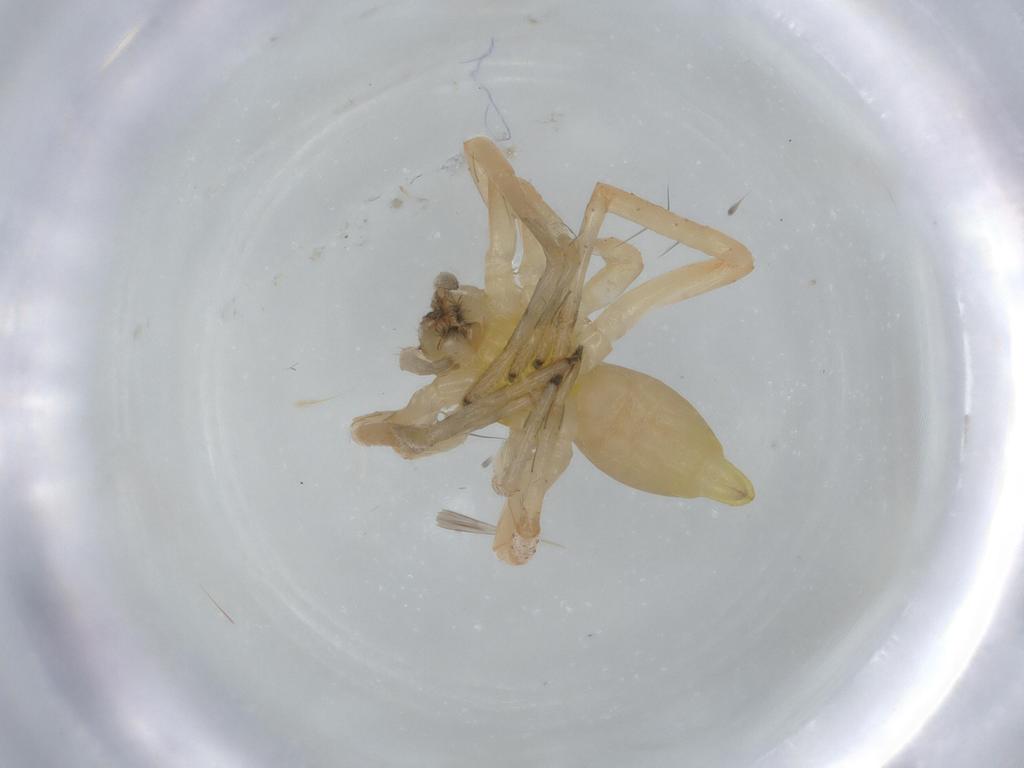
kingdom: Animalia
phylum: Arthropoda
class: Arachnida
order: Araneae
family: Anyphaenidae
